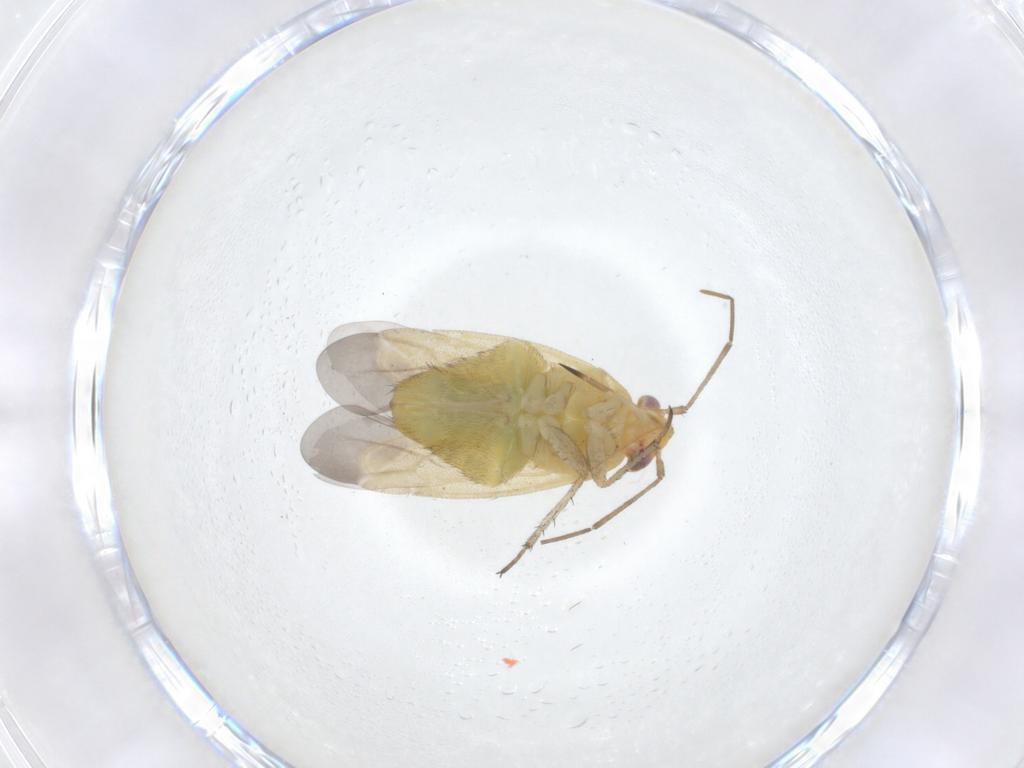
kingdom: Animalia
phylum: Arthropoda
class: Insecta
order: Hemiptera
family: Miridae
